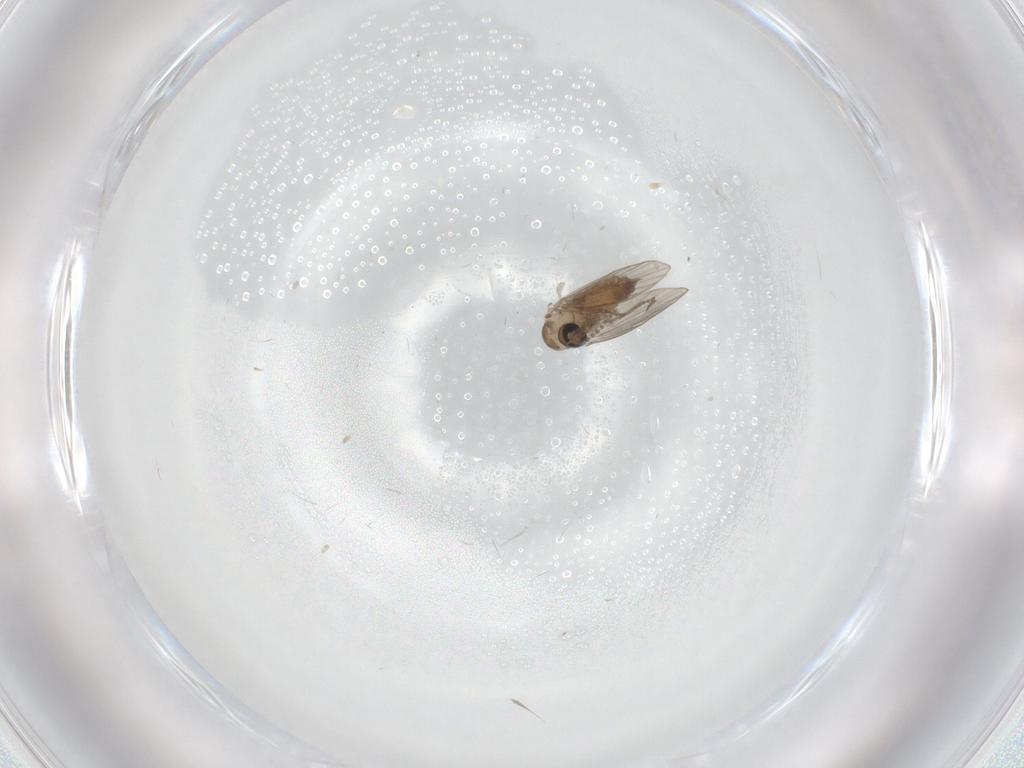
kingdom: Animalia
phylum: Arthropoda
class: Insecta
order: Diptera
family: Psychodidae
